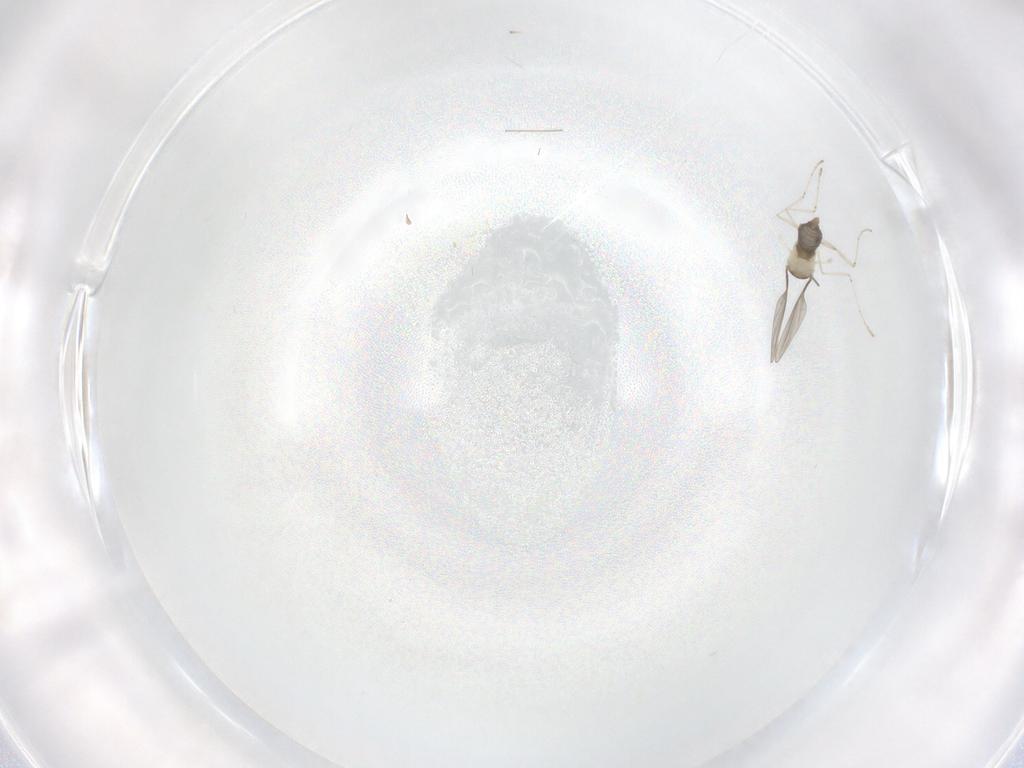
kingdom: Animalia
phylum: Arthropoda
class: Insecta
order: Diptera
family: Cecidomyiidae
